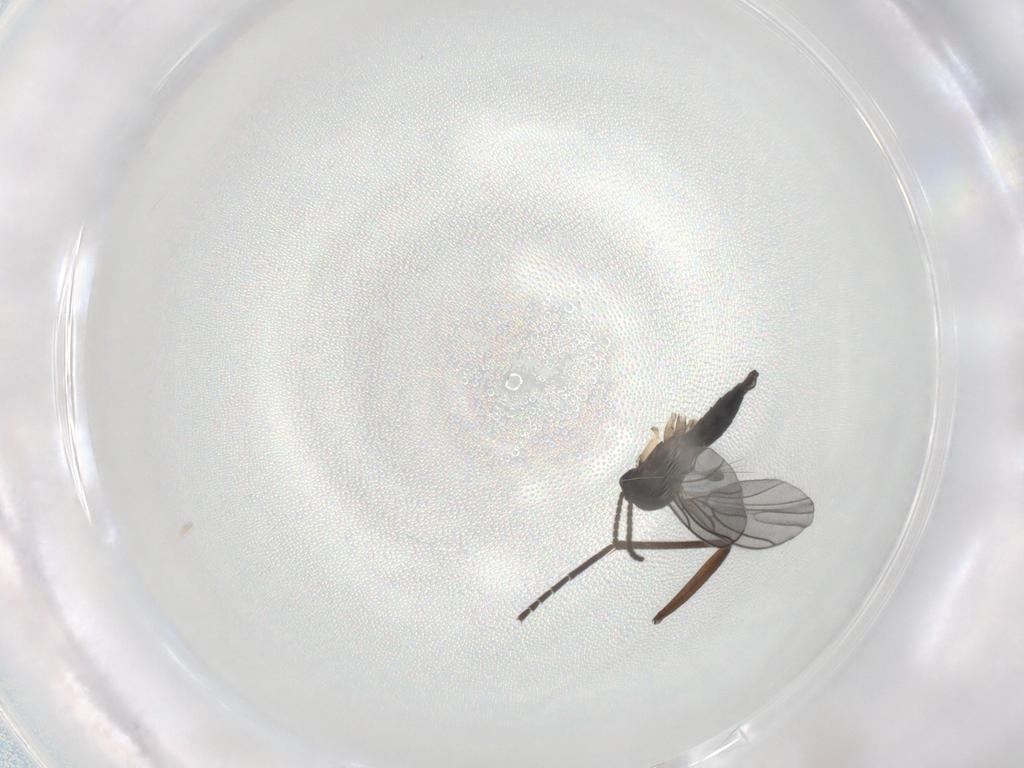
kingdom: Animalia
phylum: Arthropoda
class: Insecta
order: Diptera
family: Sciaridae
